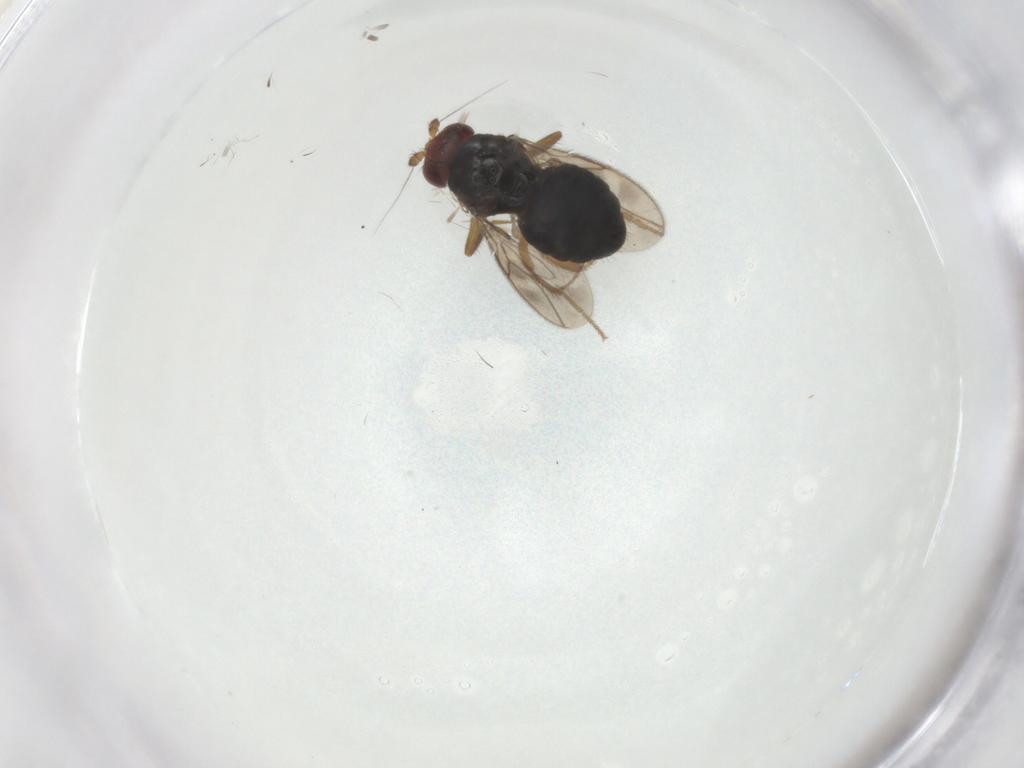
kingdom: Animalia
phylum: Arthropoda
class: Insecta
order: Diptera
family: Sphaeroceridae
